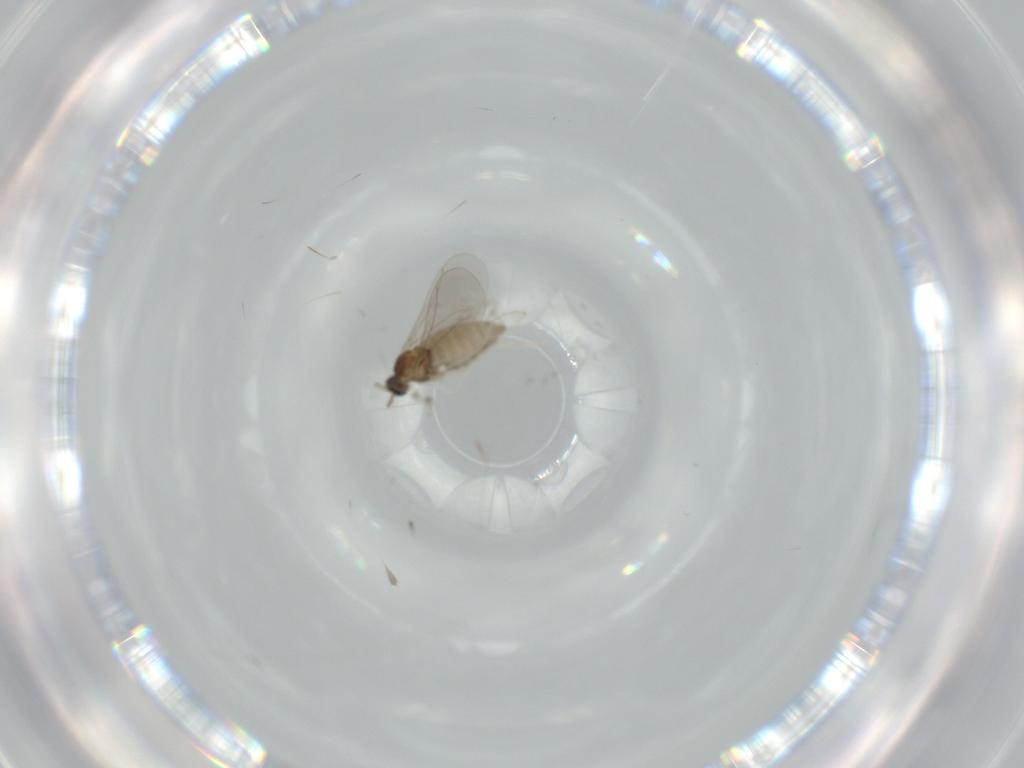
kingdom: Animalia
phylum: Arthropoda
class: Insecta
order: Diptera
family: Cecidomyiidae
